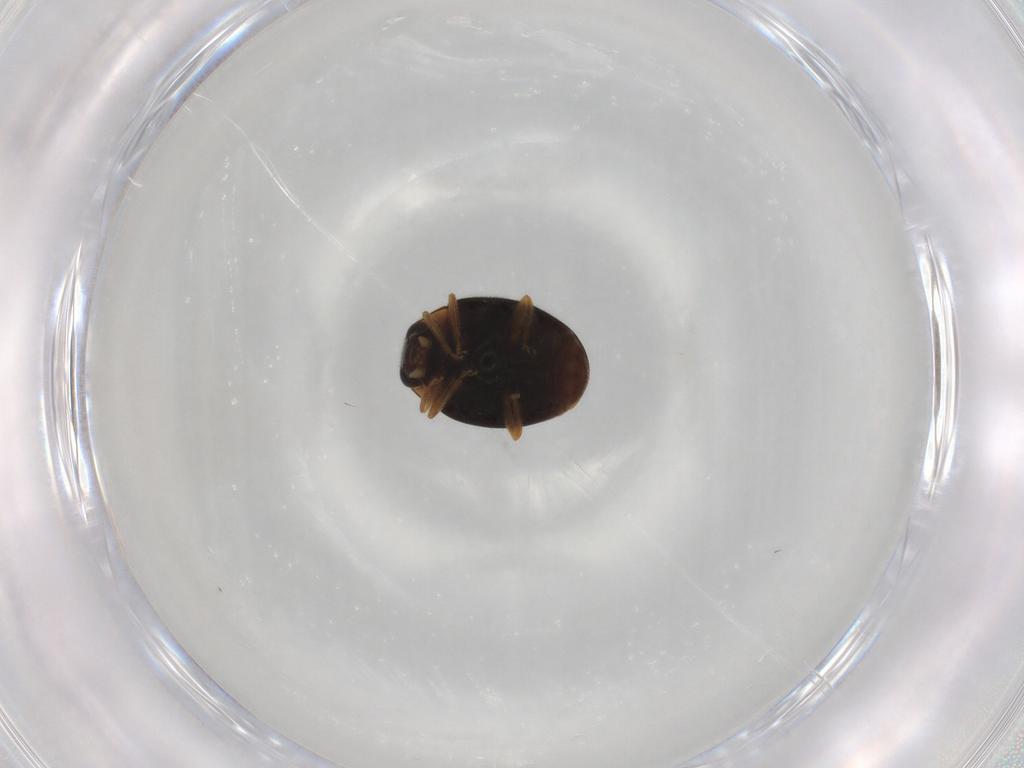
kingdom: Animalia
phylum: Arthropoda
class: Insecta
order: Coleoptera
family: Coccinellidae
